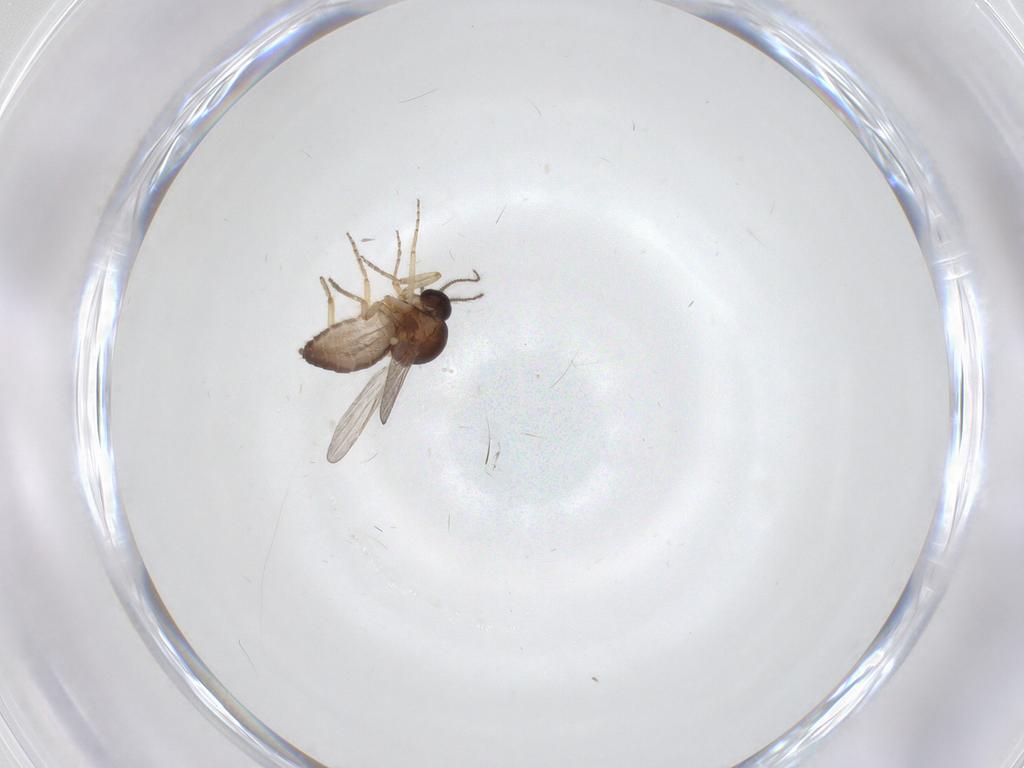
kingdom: Animalia
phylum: Arthropoda
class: Insecta
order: Diptera
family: Ceratopogonidae
